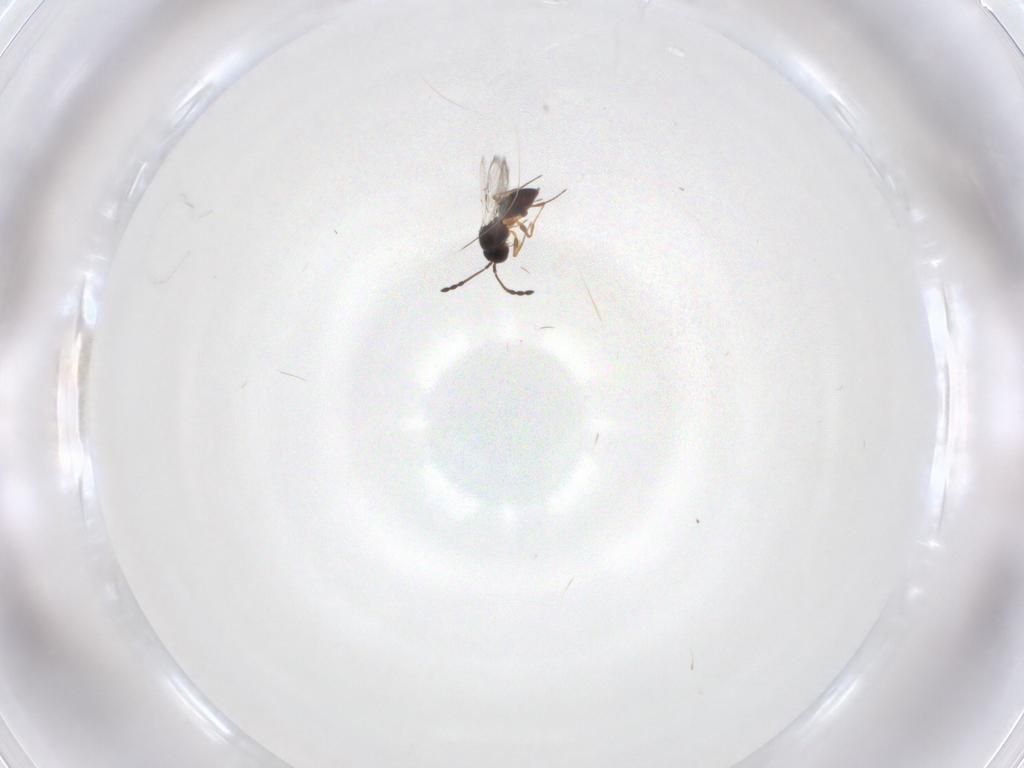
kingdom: Animalia
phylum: Arthropoda
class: Insecta
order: Hymenoptera
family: Figitidae
